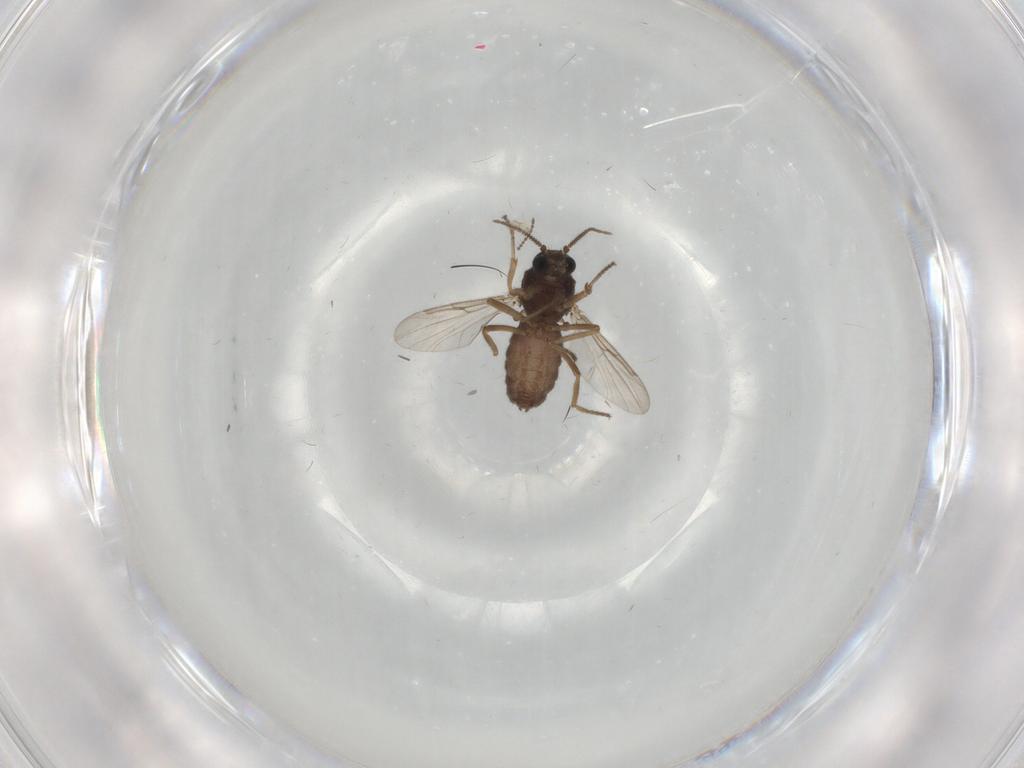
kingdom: Animalia
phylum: Arthropoda
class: Insecta
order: Diptera
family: Ceratopogonidae
